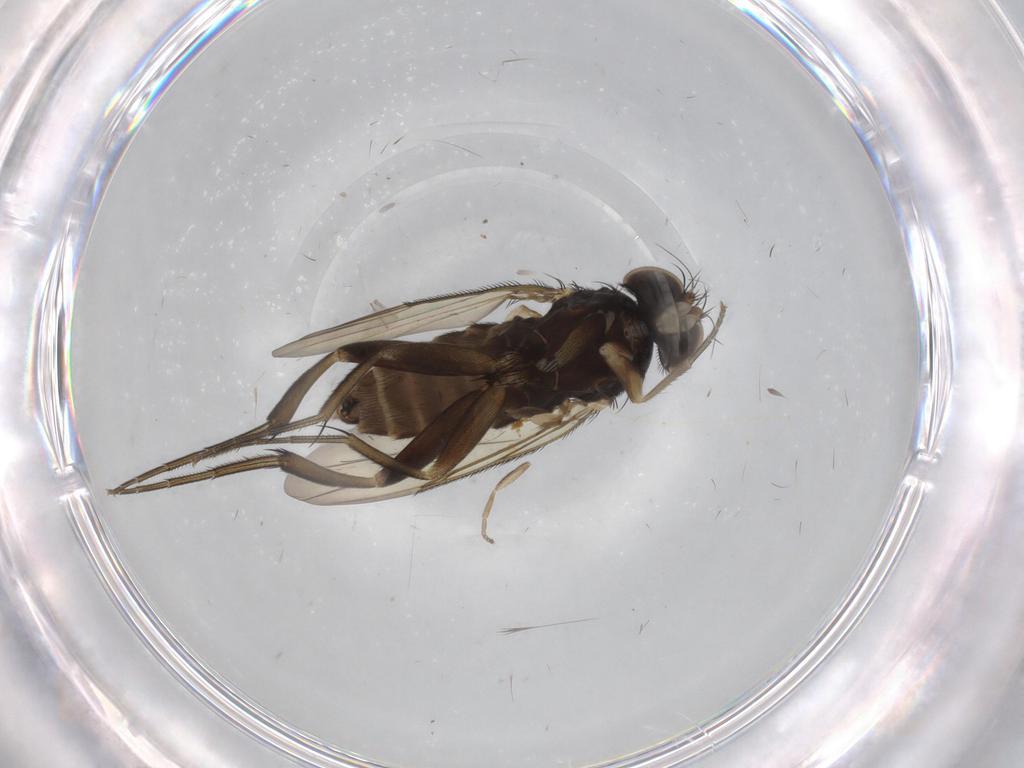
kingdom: Animalia
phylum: Arthropoda
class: Insecta
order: Diptera
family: Phoridae
